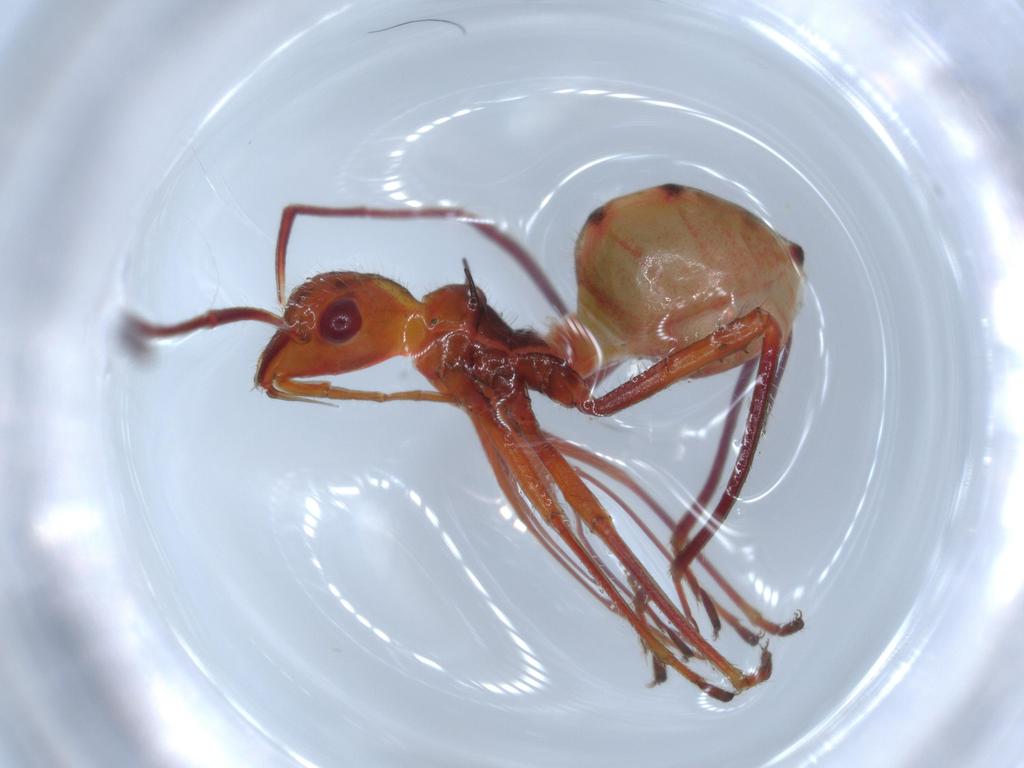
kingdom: Animalia
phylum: Arthropoda
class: Insecta
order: Hemiptera
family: Alydidae
